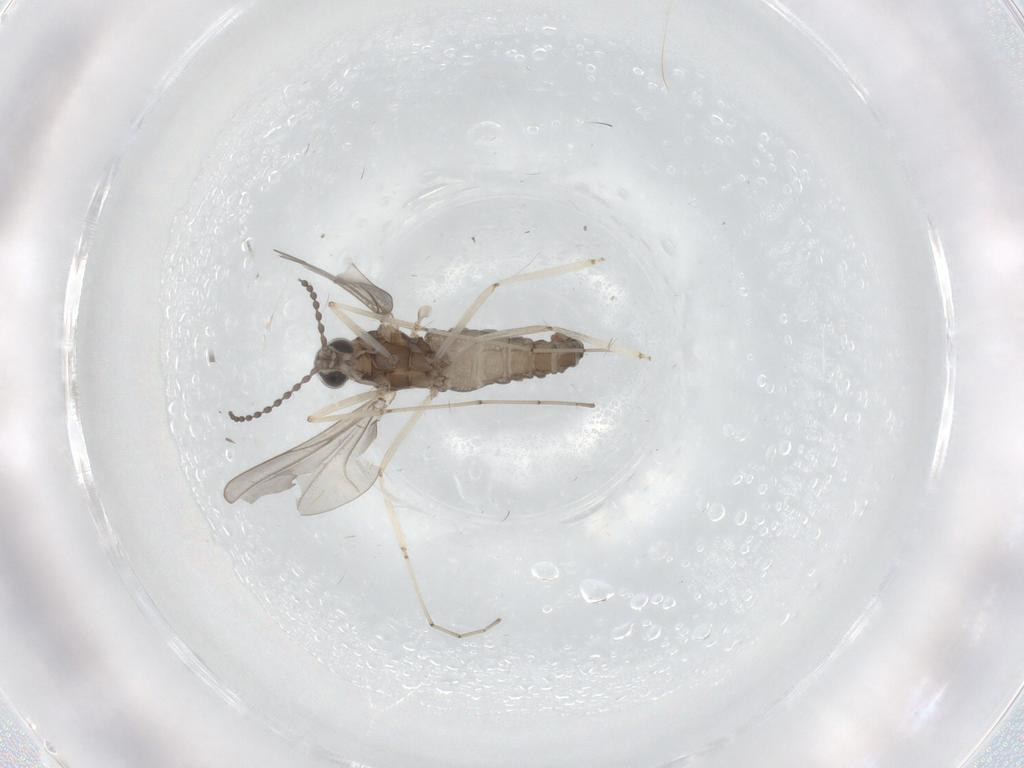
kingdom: Animalia
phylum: Arthropoda
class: Insecta
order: Diptera
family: Cecidomyiidae
